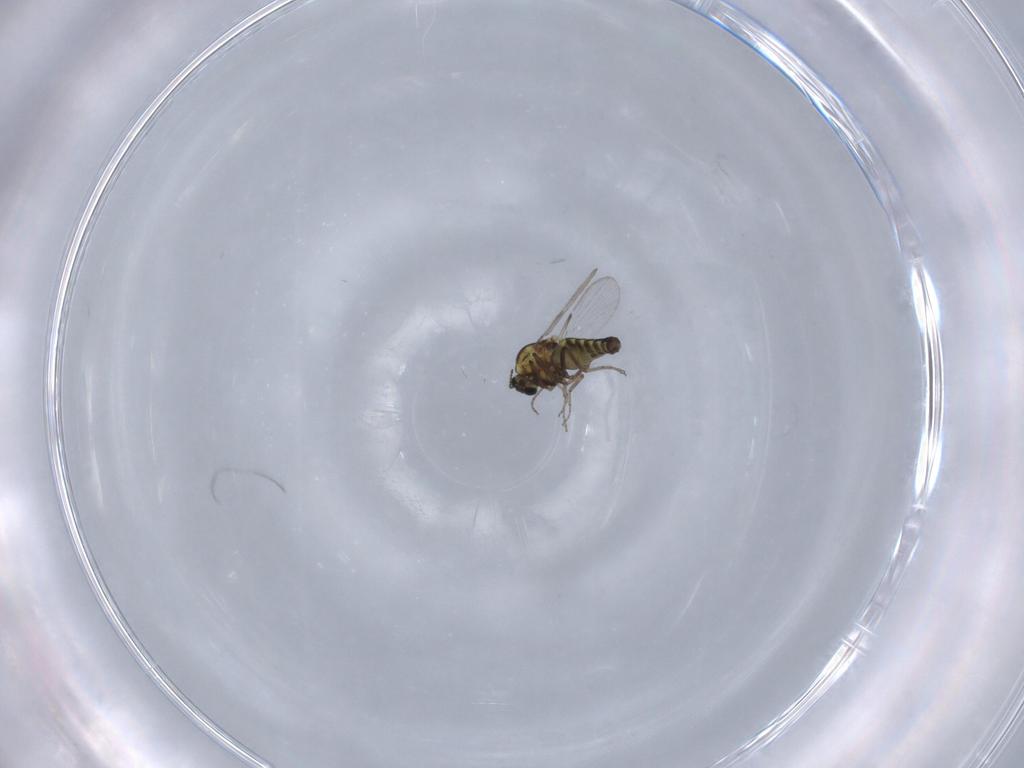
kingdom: Animalia
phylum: Arthropoda
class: Insecta
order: Diptera
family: Ceratopogonidae
